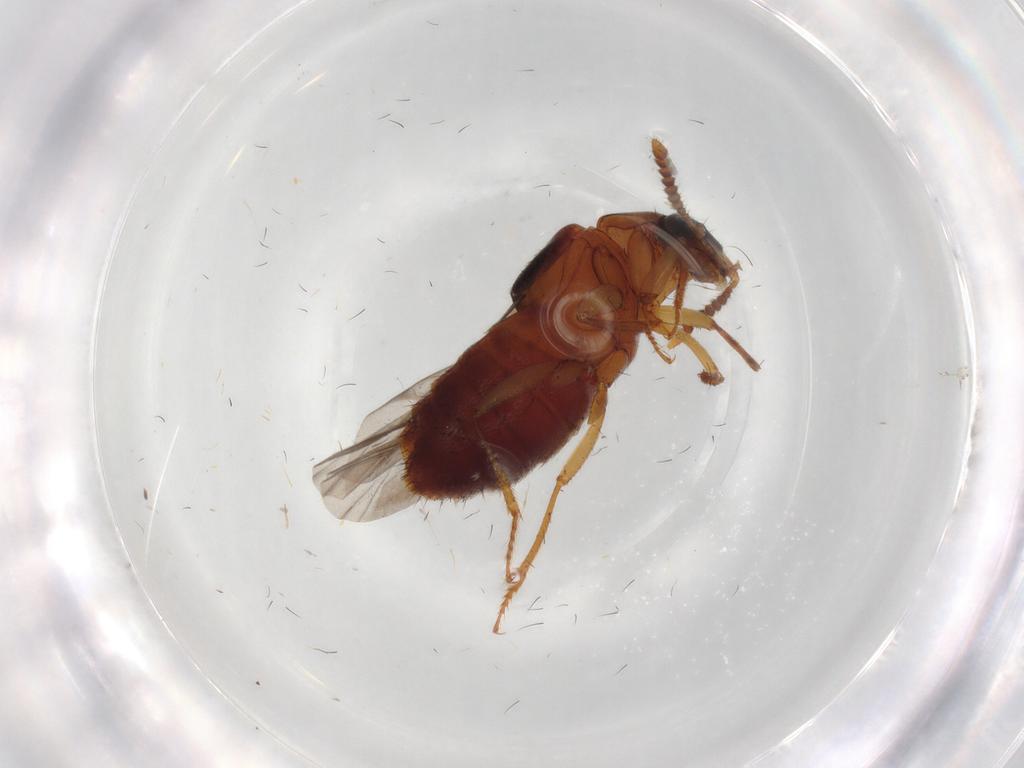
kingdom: Animalia
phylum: Arthropoda
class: Insecta
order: Coleoptera
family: Staphylinidae
